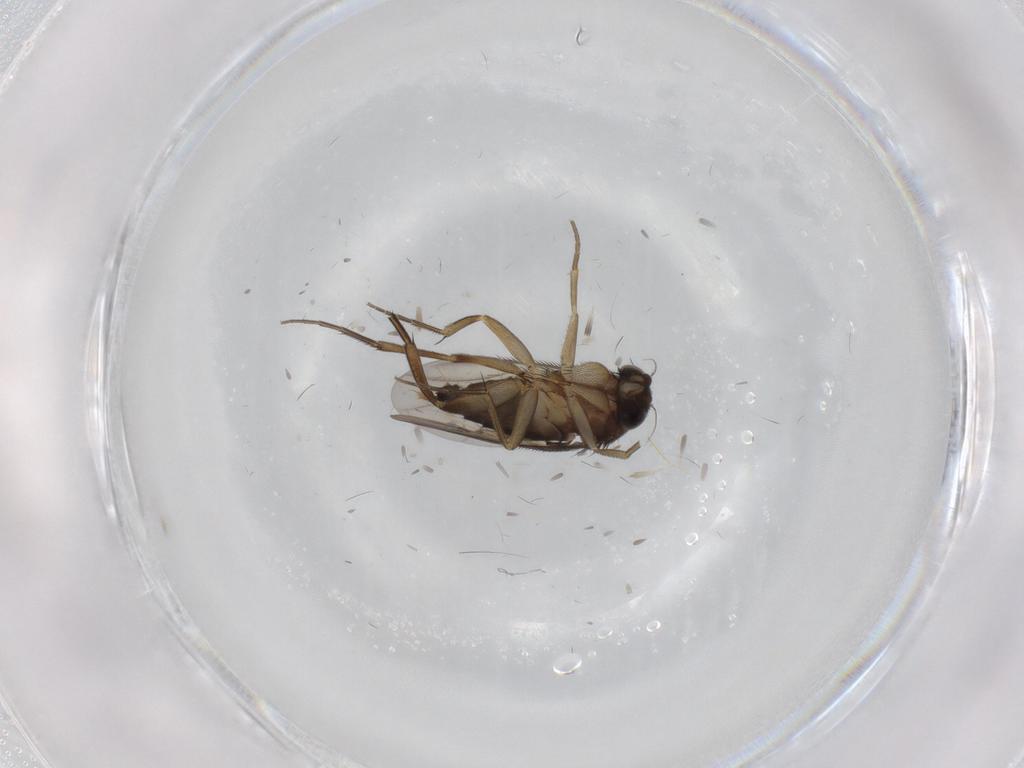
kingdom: Animalia
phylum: Arthropoda
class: Insecta
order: Diptera
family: Phoridae
